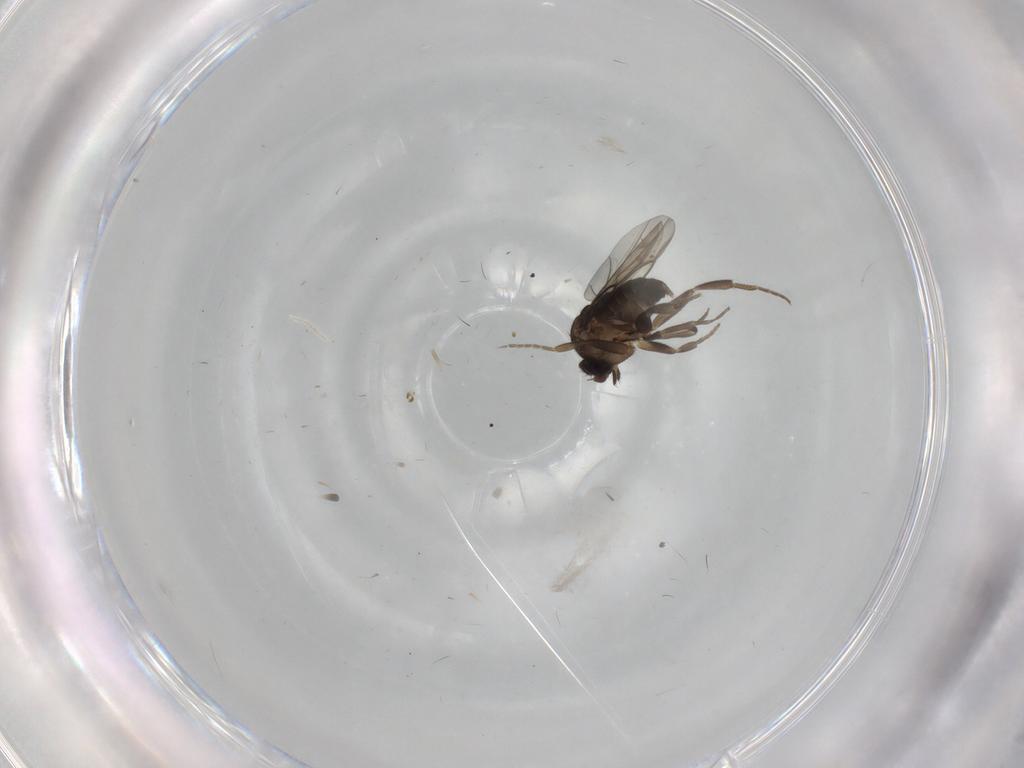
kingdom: Animalia
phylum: Arthropoda
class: Insecta
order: Diptera
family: Phoridae
